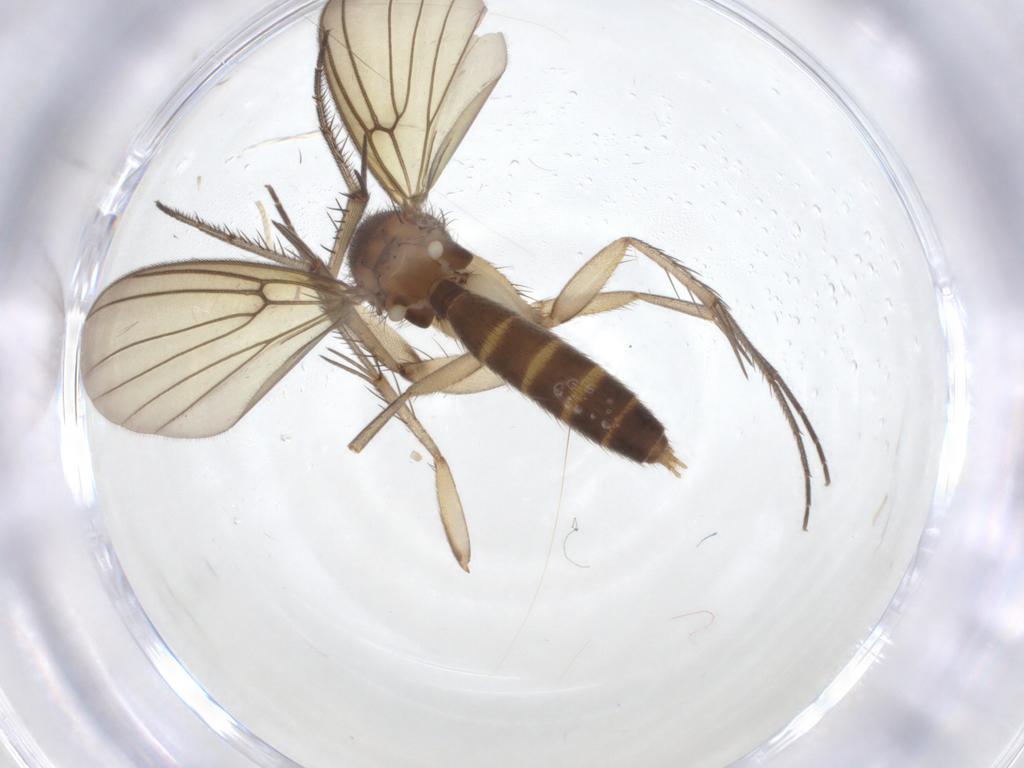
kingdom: Animalia
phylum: Arthropoda
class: Insecta
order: Diptera
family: Mycetophilidae
